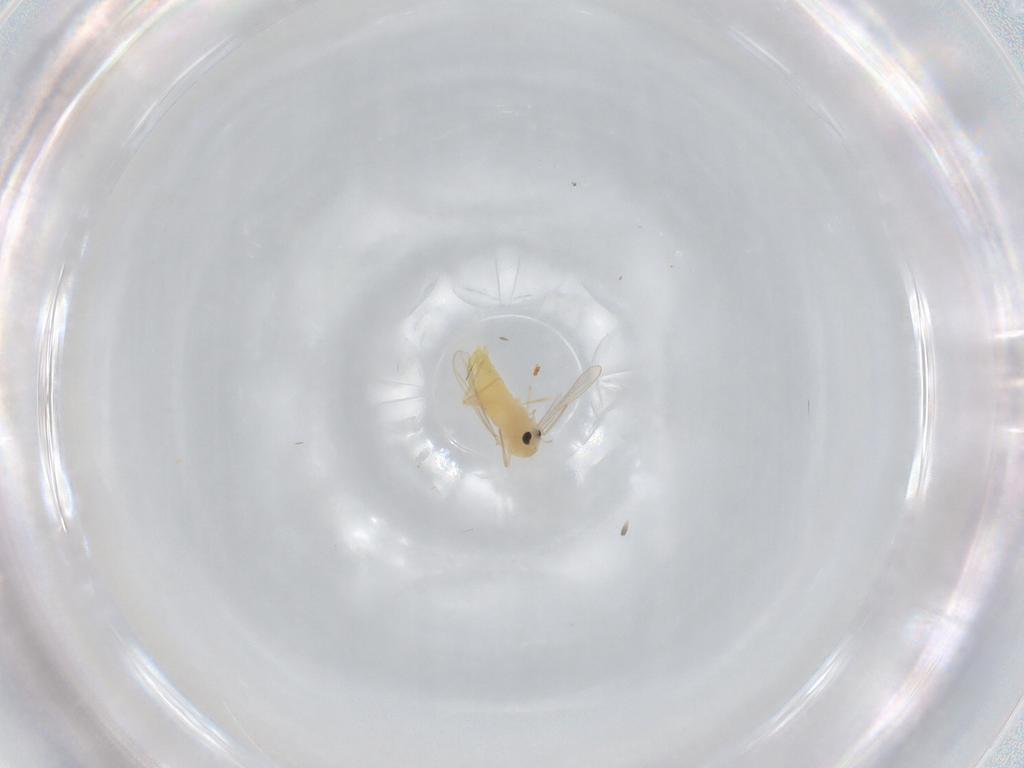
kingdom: Animalia
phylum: Arthropoda
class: Insecta
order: Diptera
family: Chironomidae
